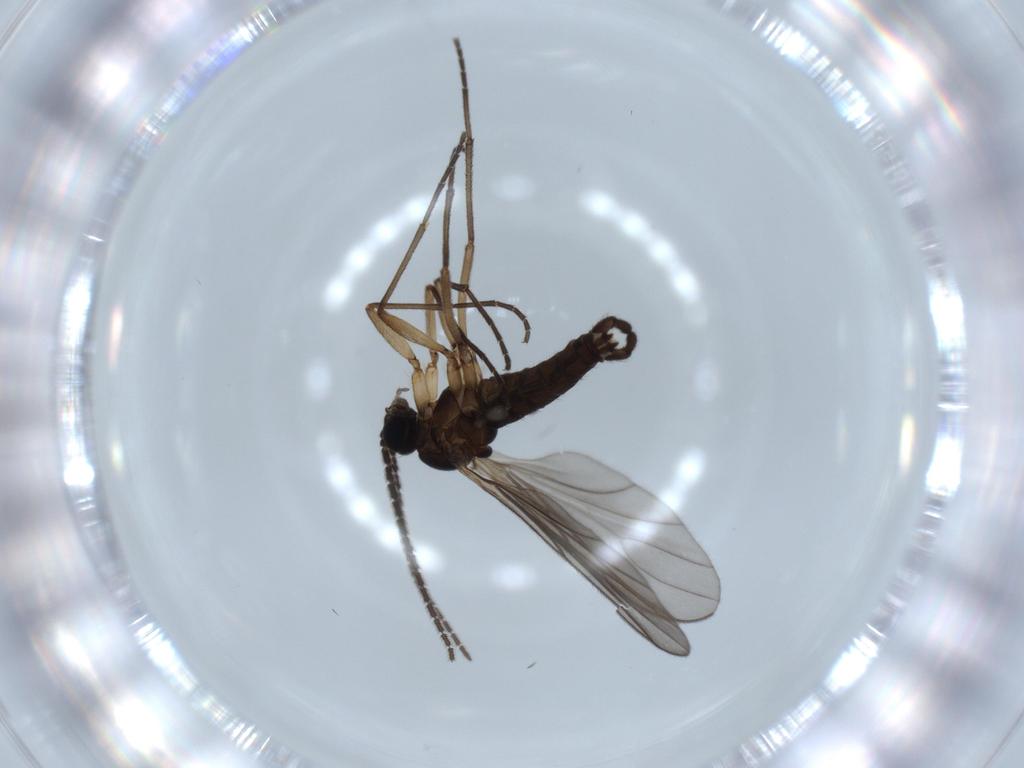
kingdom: Animalia
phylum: Arthropoda
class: Insecta
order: Diptera
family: Sciaridae
